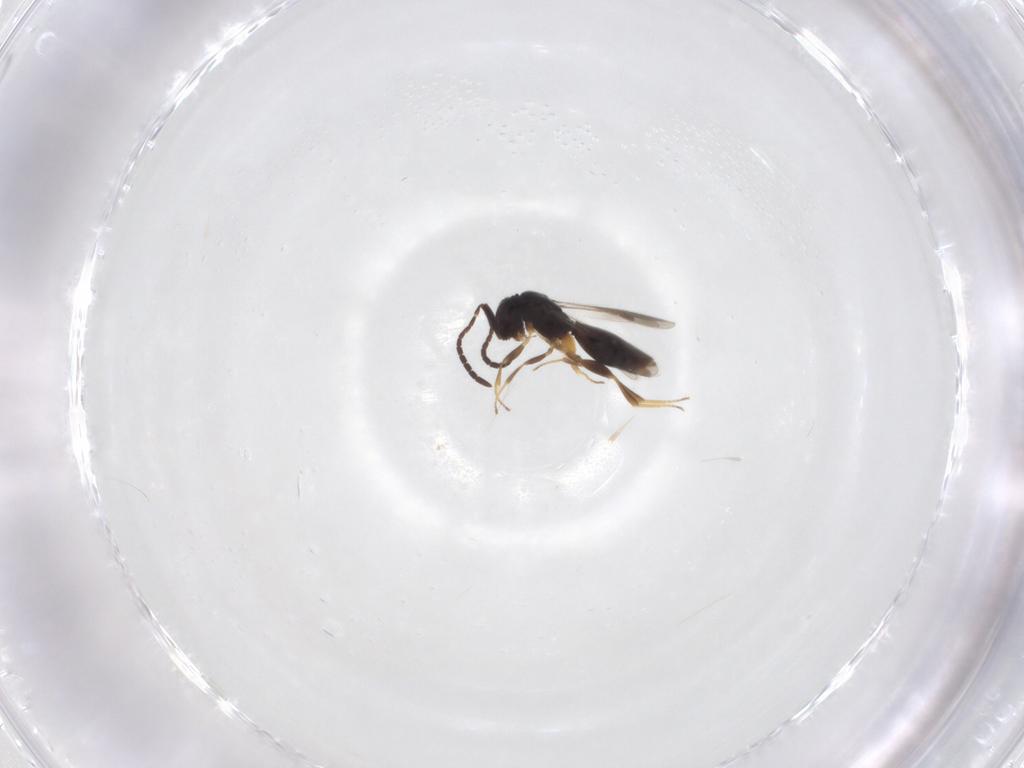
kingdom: Animalia
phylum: Arthropoda
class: Insecta
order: Hymenoptera
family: Megaspilidae
